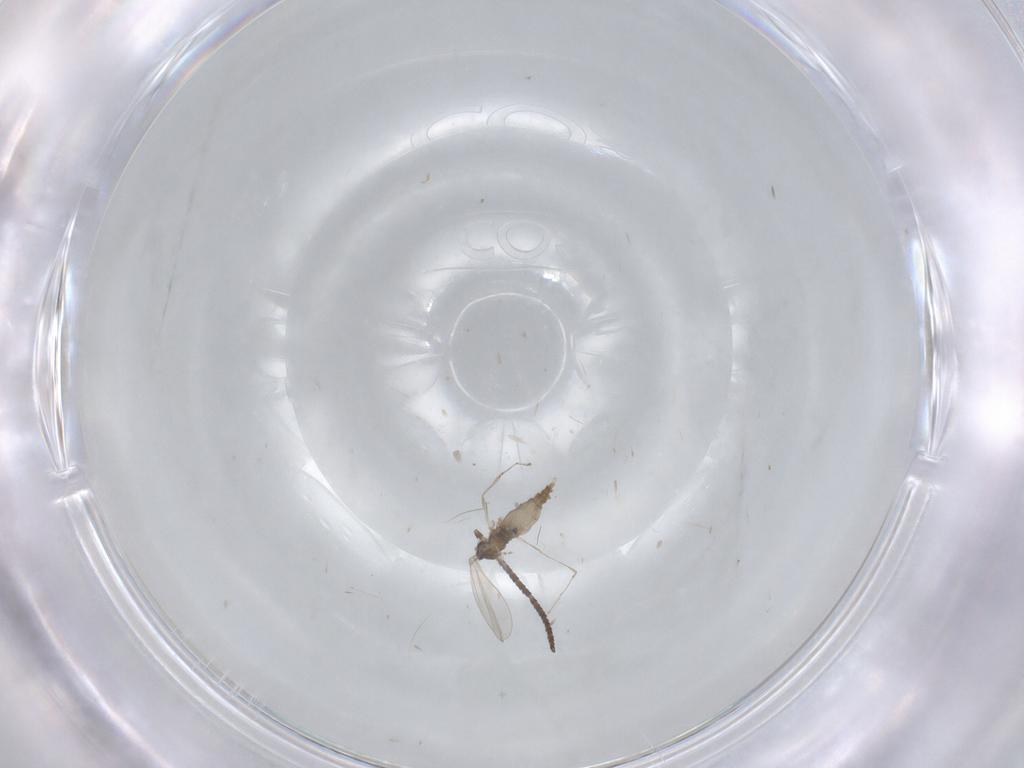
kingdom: Animalia
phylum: Arthropoda
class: Insecta
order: Diptera
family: Cecidomyiidae
